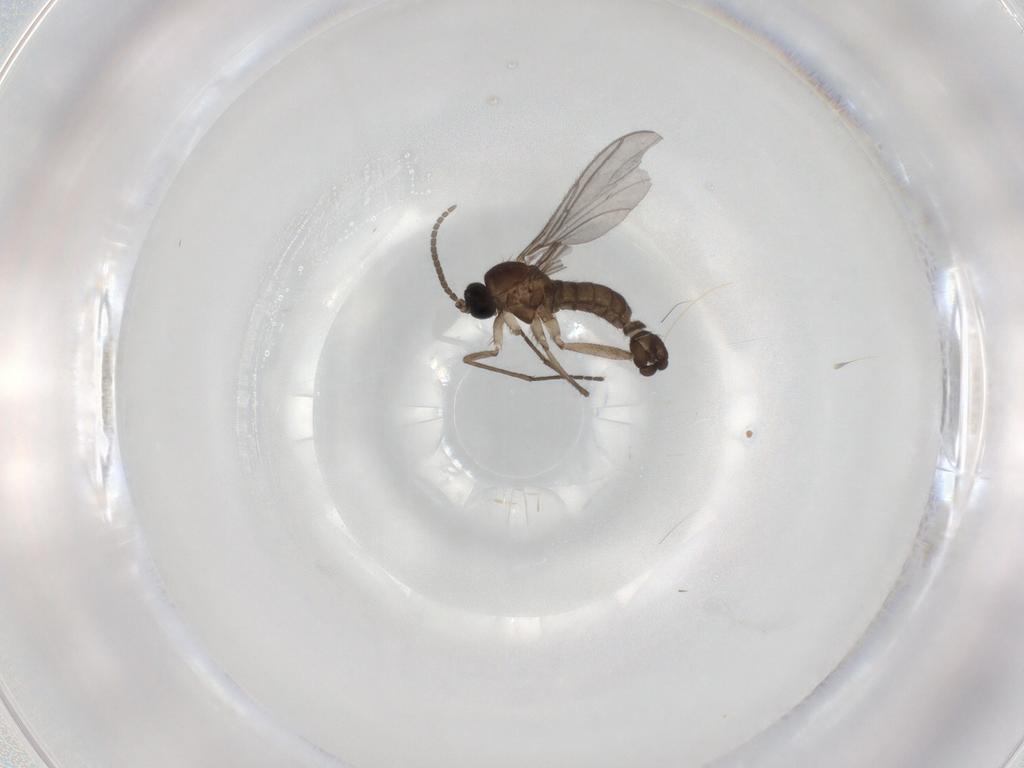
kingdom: Animalia
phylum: Arthropoda
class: Insecta
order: Diptera
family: Sciaridae
